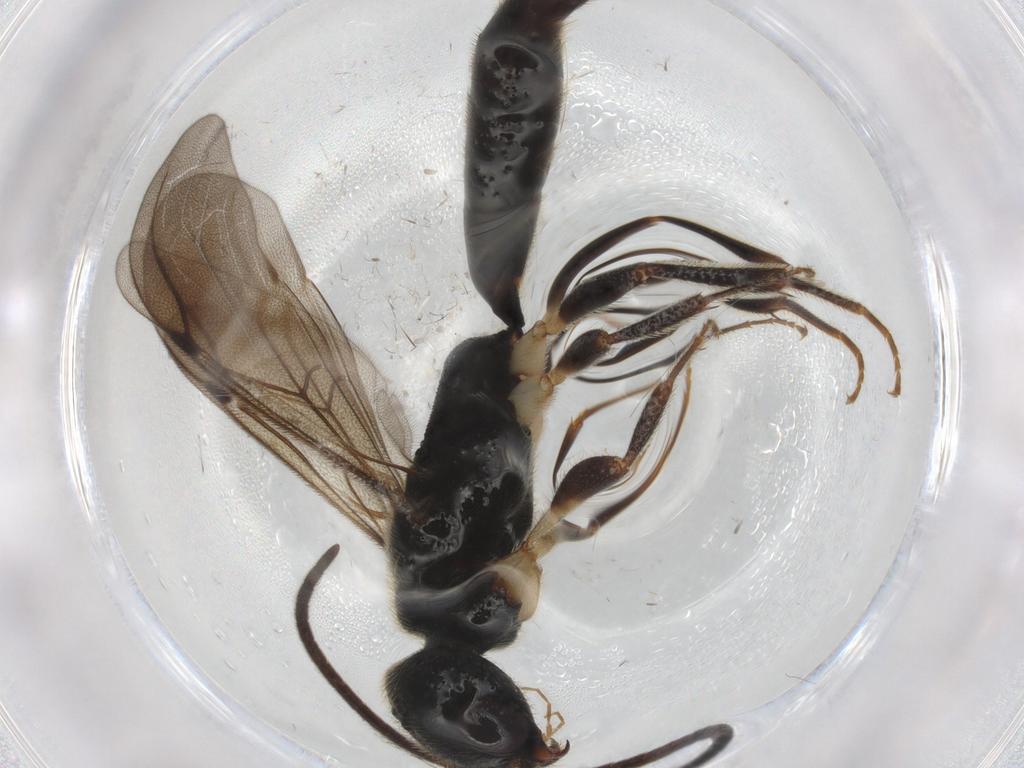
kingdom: Animalia
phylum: Arthropoda
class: Insecta
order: Hymenoptera
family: Bethylidae
